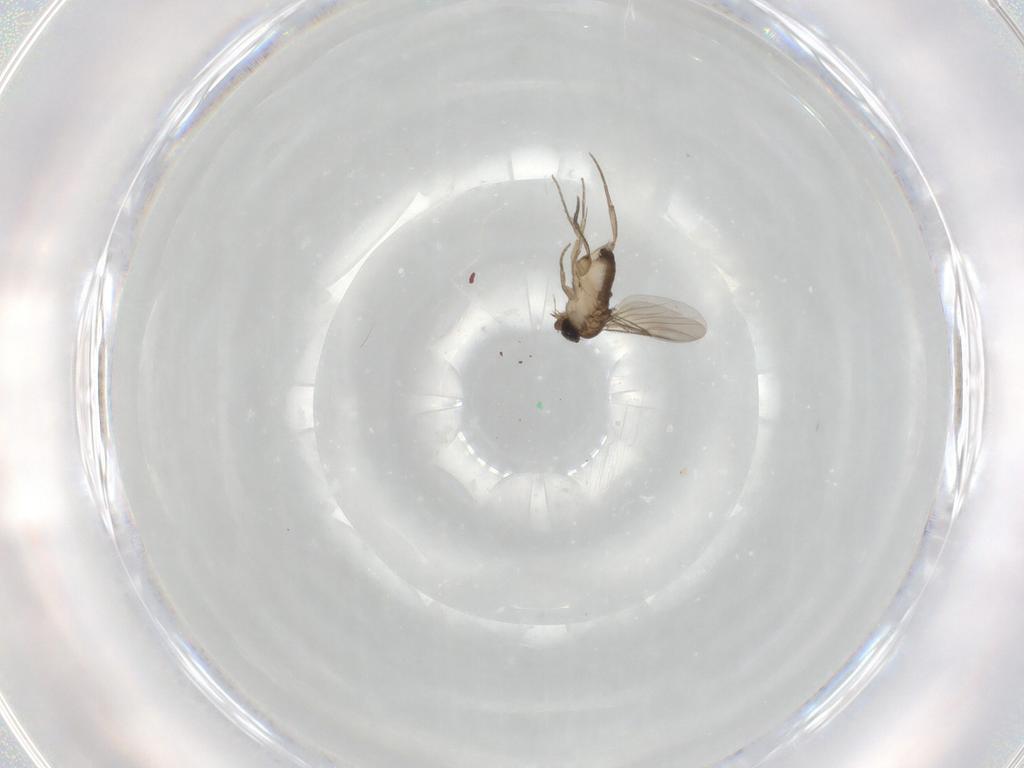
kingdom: Animalia
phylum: Arthropoda
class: Insecta
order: Diptera
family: Phoridae
